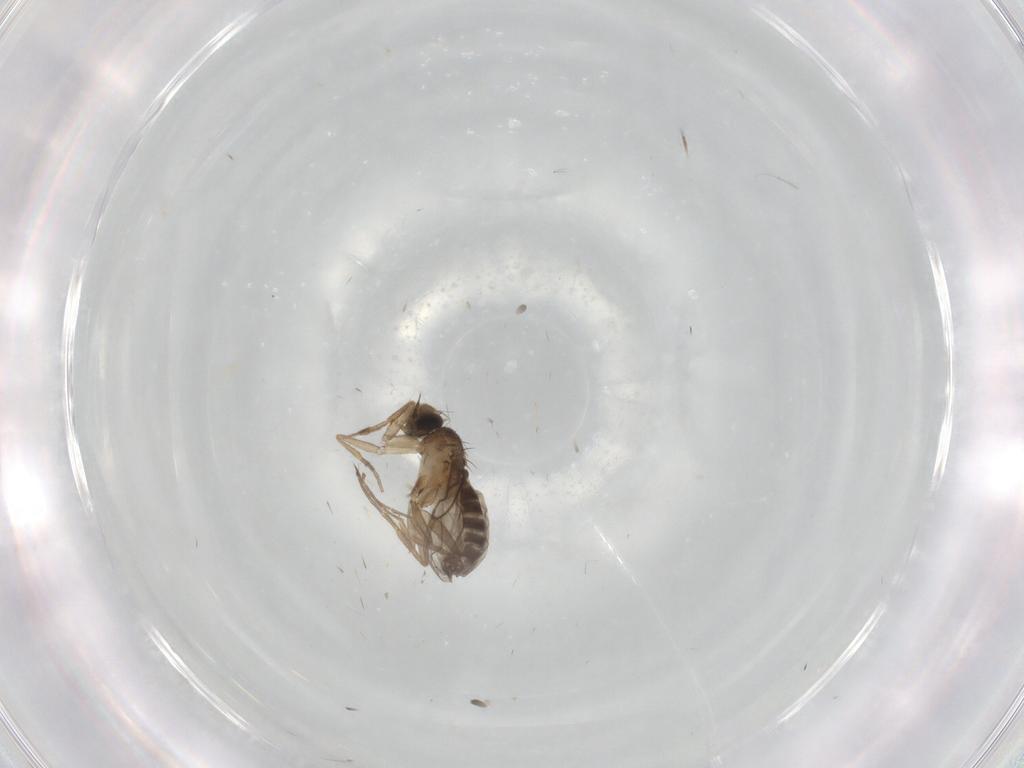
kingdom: Animalia
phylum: Arthropoda
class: Insecta
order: Diptera
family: Phoridae
